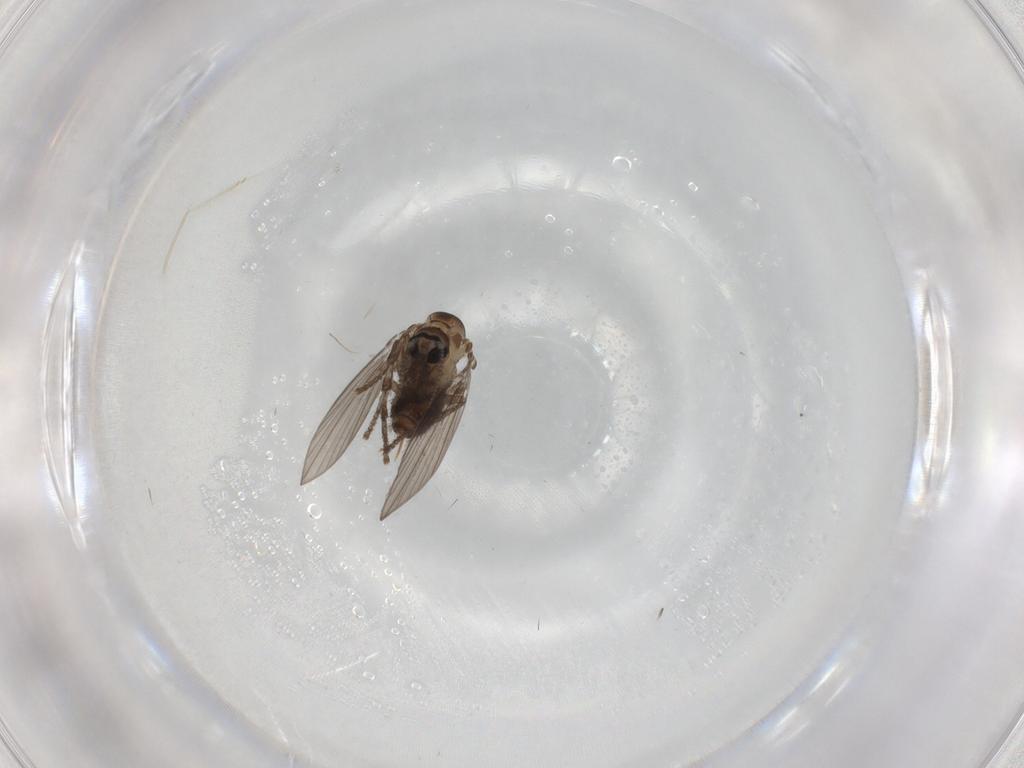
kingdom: Animalia
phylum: Arthropoda
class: Insecta
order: Diptera
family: Psychodidae
